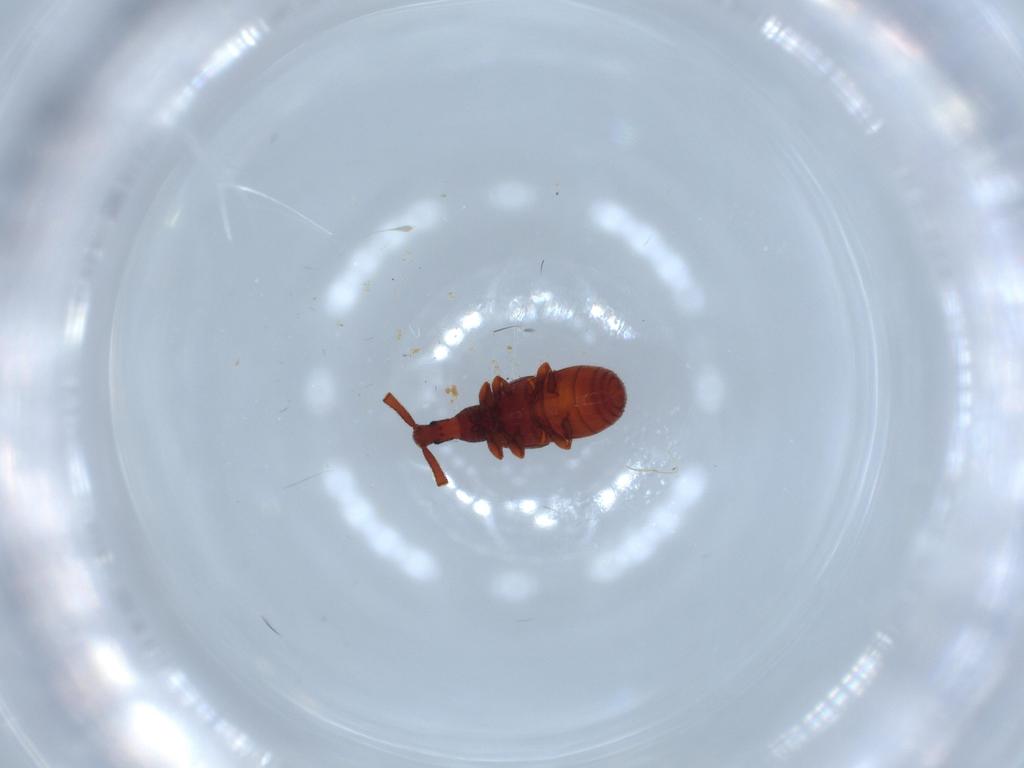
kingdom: Animalia
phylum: Arthropoda
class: Insecta
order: Coleoptera
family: Staphylinidae
